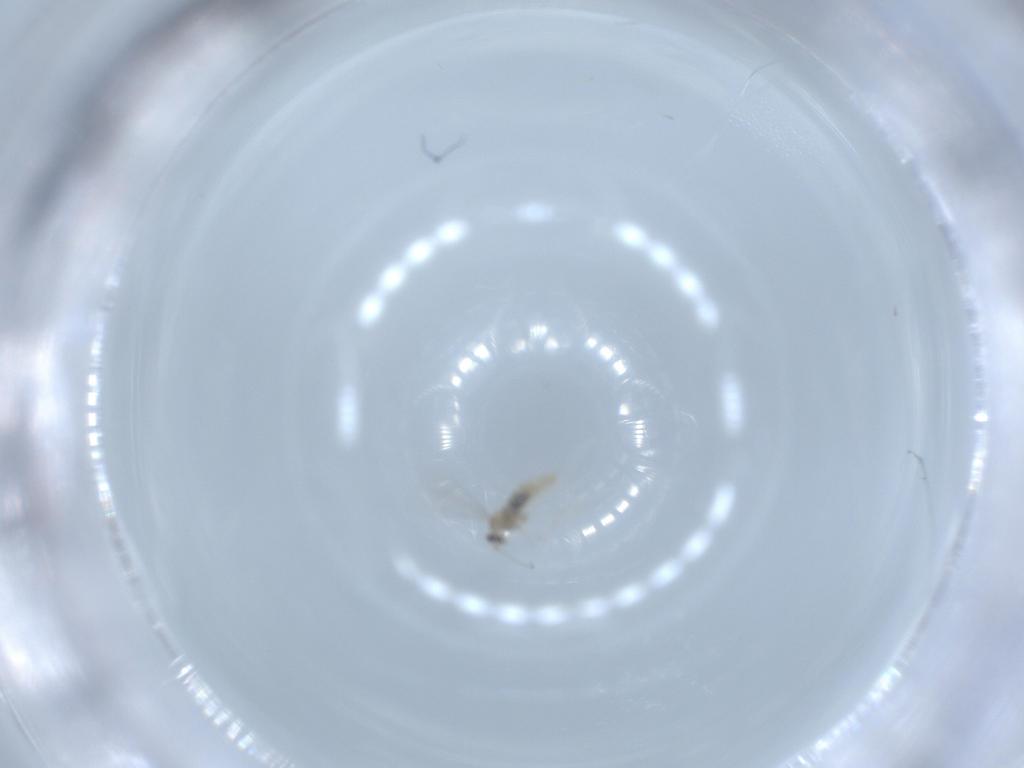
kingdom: Animalia
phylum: Arthropoda
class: Insecta
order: Diptera
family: Cecidomyiidae
